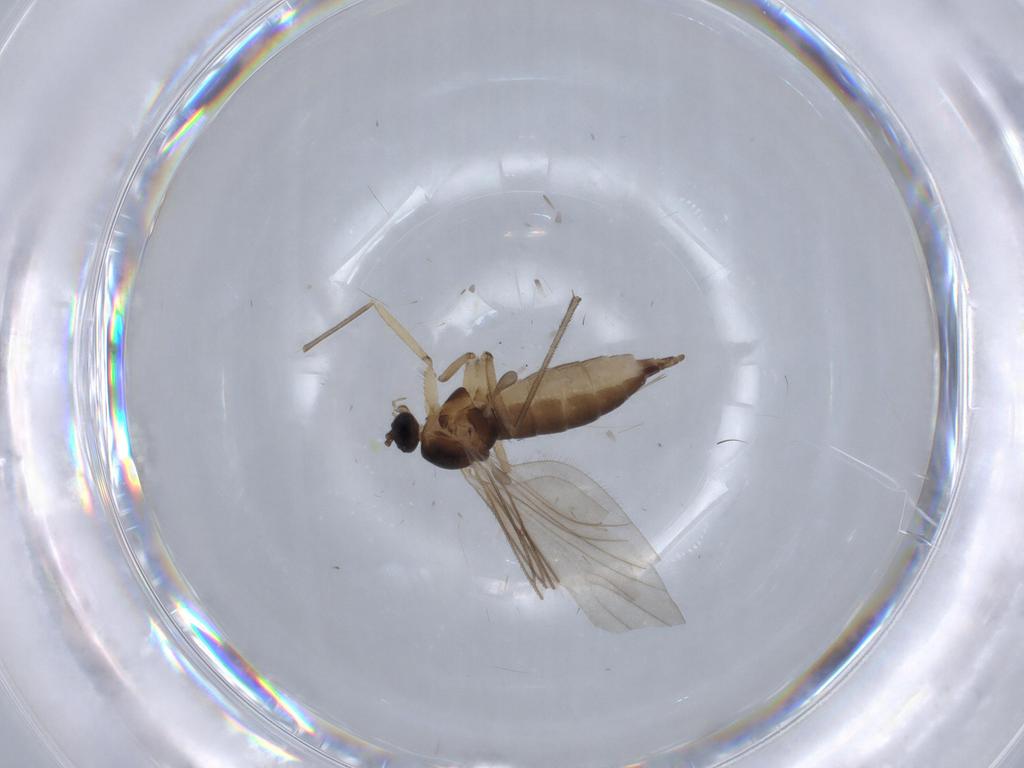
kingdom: Animalia
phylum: Arthropoda
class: Insecta
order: Diptera
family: Sciaridae
